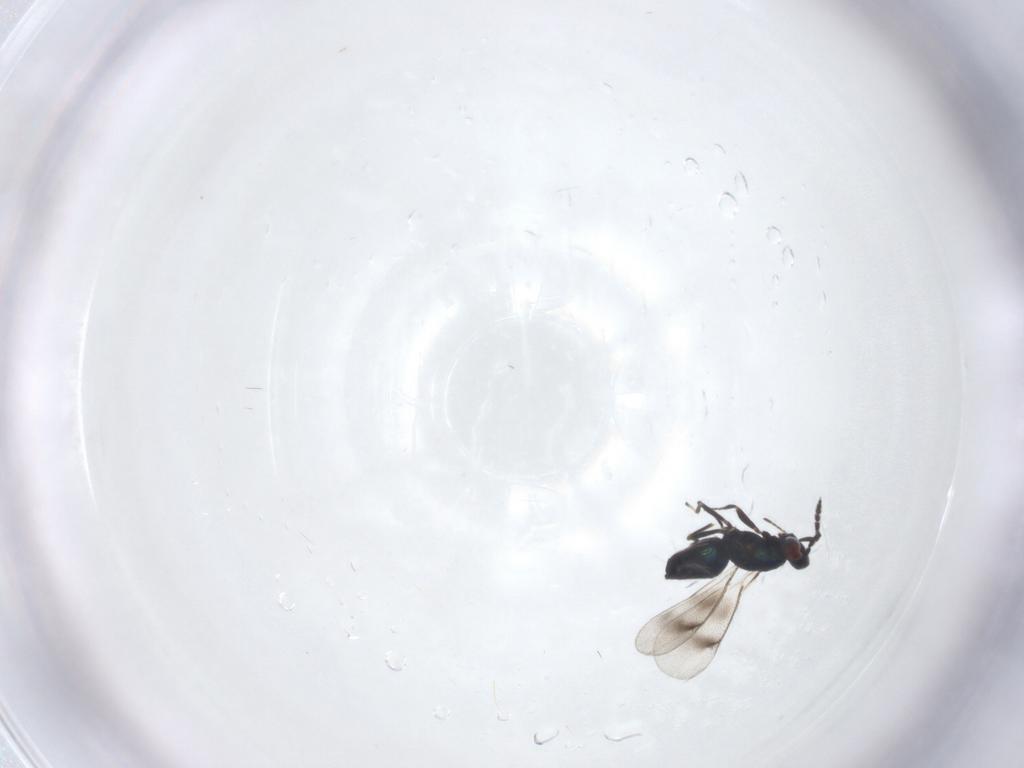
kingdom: Animalia
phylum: Arthropoda
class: Insecta
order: Hymenoptera
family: Eulophidae
